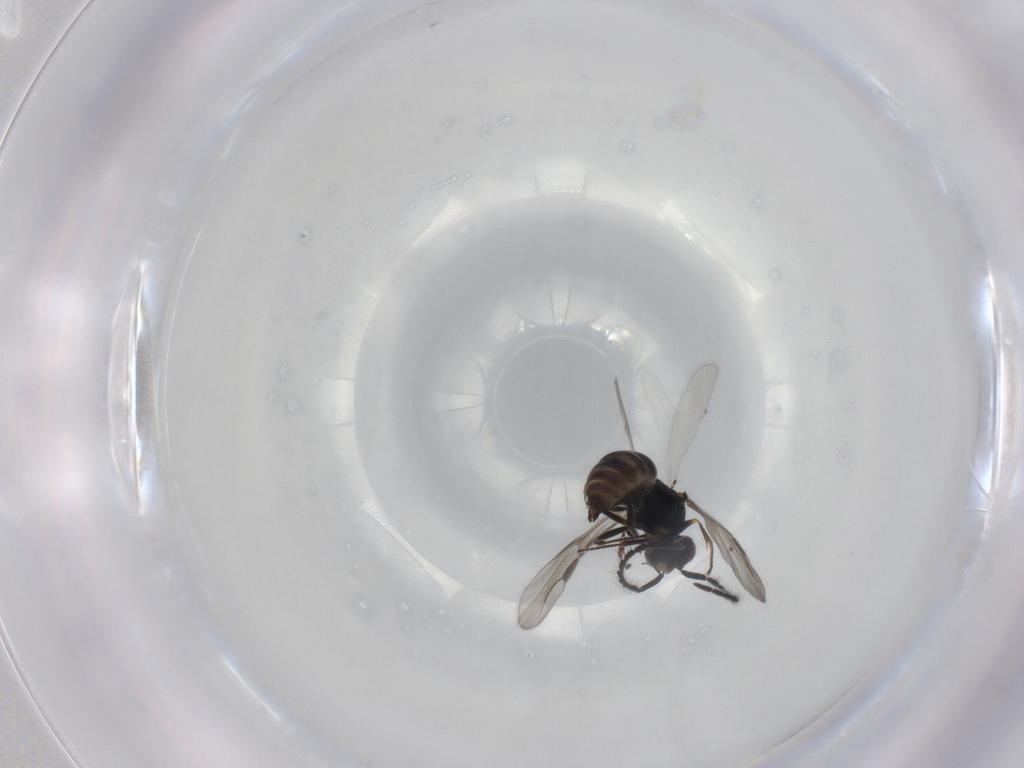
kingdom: Animalia
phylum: Arthropoda
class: Insecta
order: Hymenoptera
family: Megaspilidae
